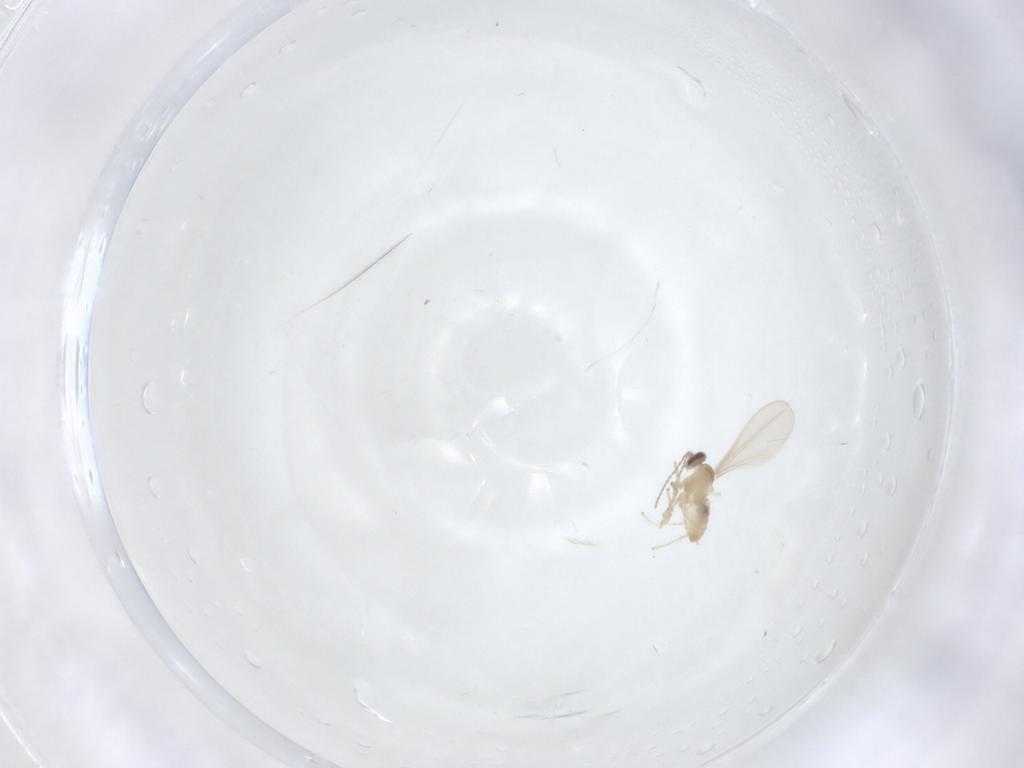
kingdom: Animalia
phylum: Arthropoda
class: Insecta
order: Diptera
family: Cecidomyiidae
